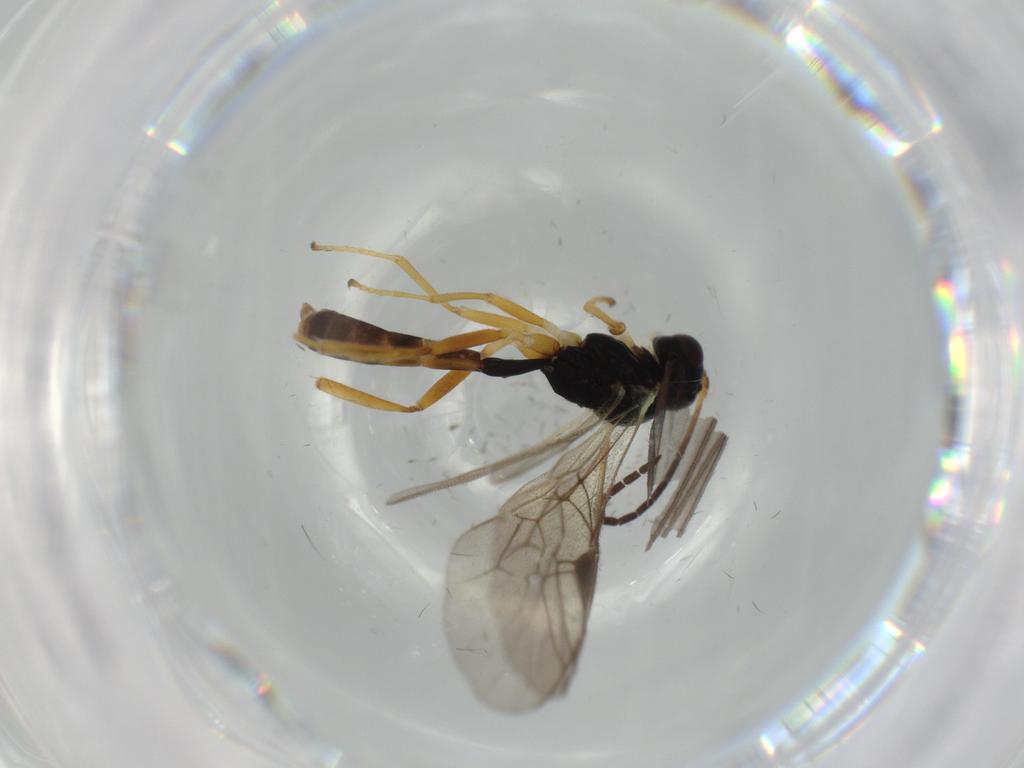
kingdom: Animalia
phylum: Arthropoda
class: Insecta
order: Hymenoptera
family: Ichneumonidae
